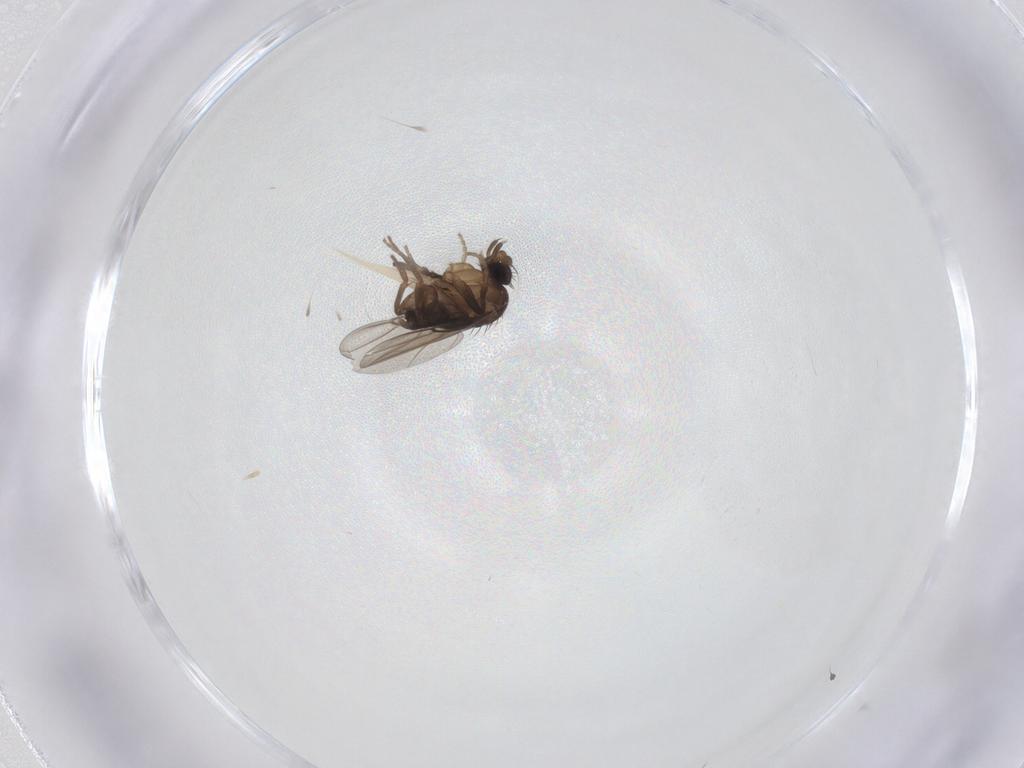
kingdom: Animalia
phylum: Arthropoda
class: Insecta
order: Diptera
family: Phoridae
